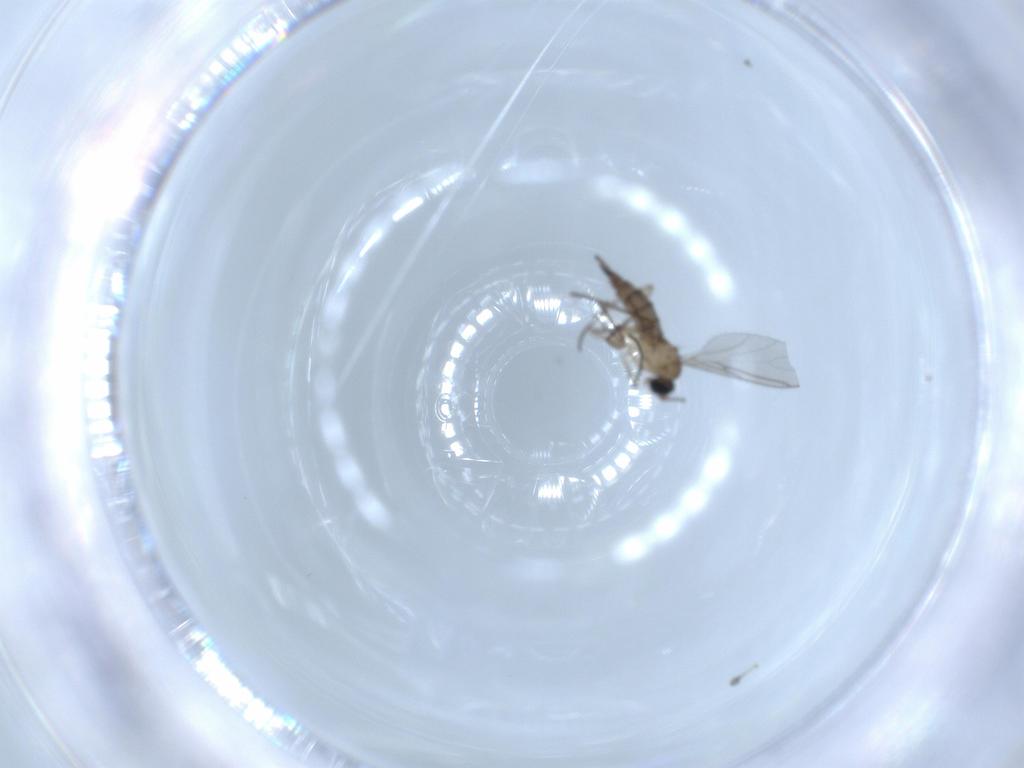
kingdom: Animalia
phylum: Arthropoda
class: Insecta
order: Diptera
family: Sciaridae
